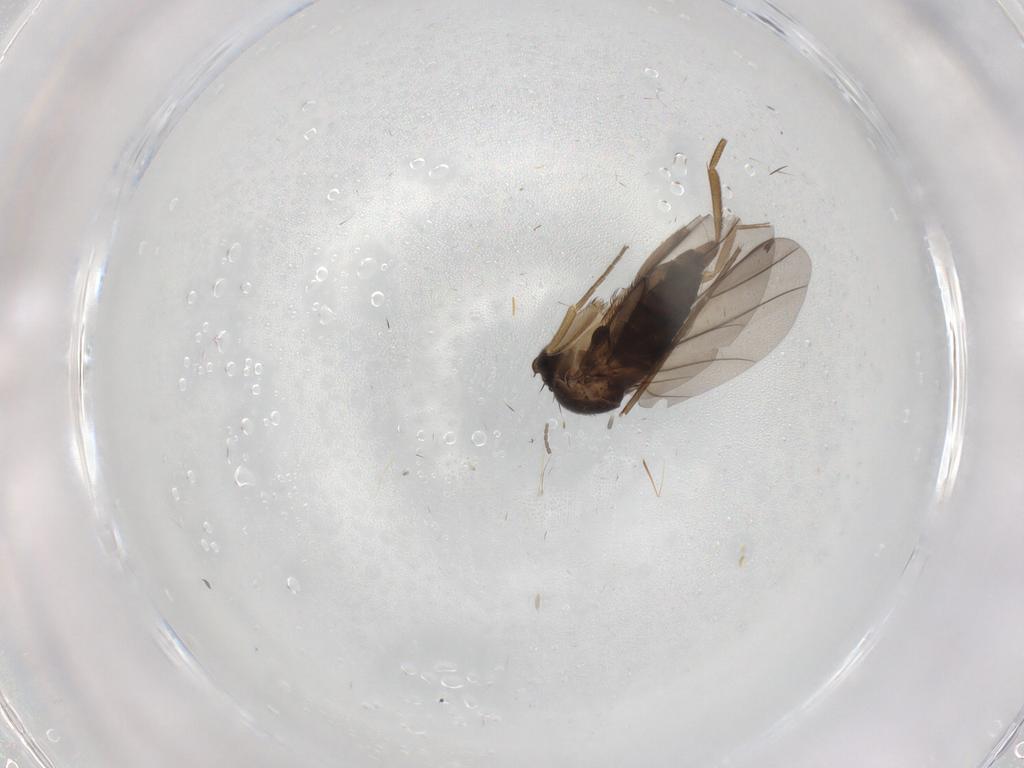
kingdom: Animalia
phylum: Arthropoda
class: Insecta
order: Diptera
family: Phoridae
